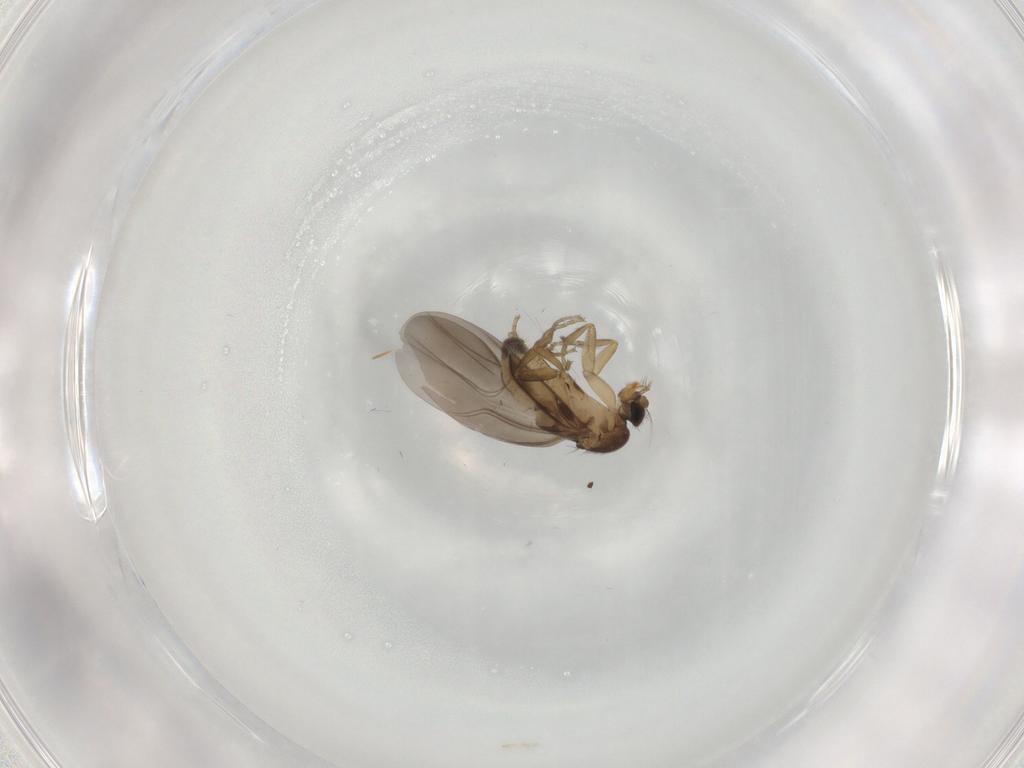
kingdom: Animalia
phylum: Arthropoda
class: Insecta
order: Diptera
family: Phoridae
